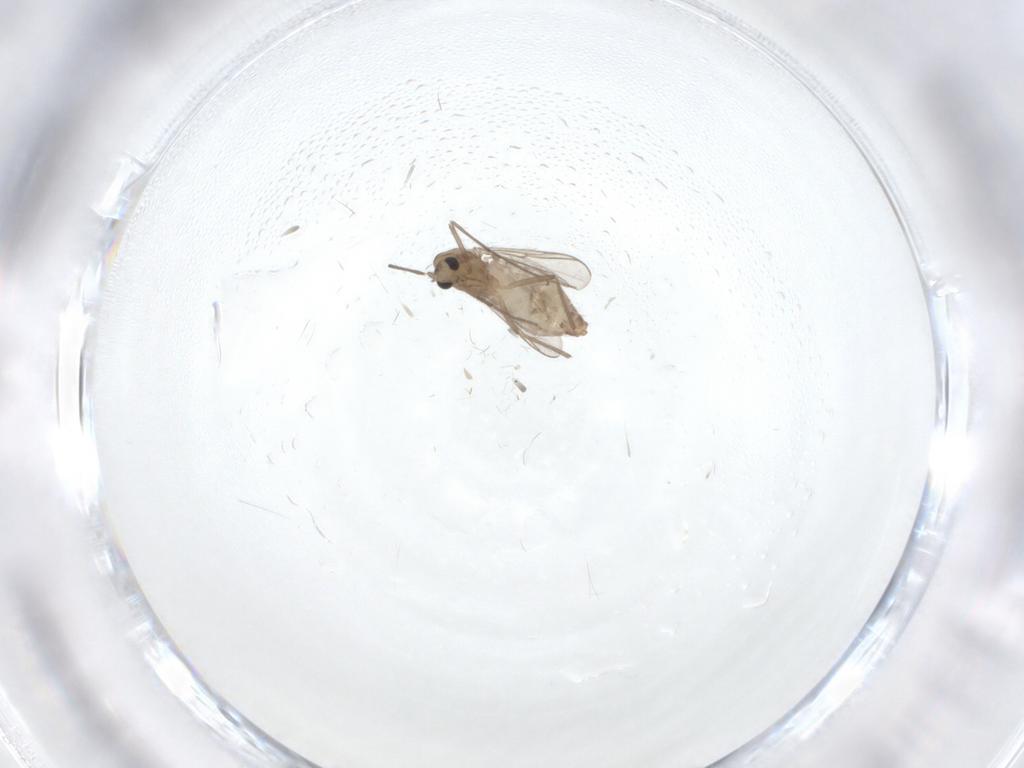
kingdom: Animalia
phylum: Arthropoda
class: Insecta
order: Diptera
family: Chironomidae
